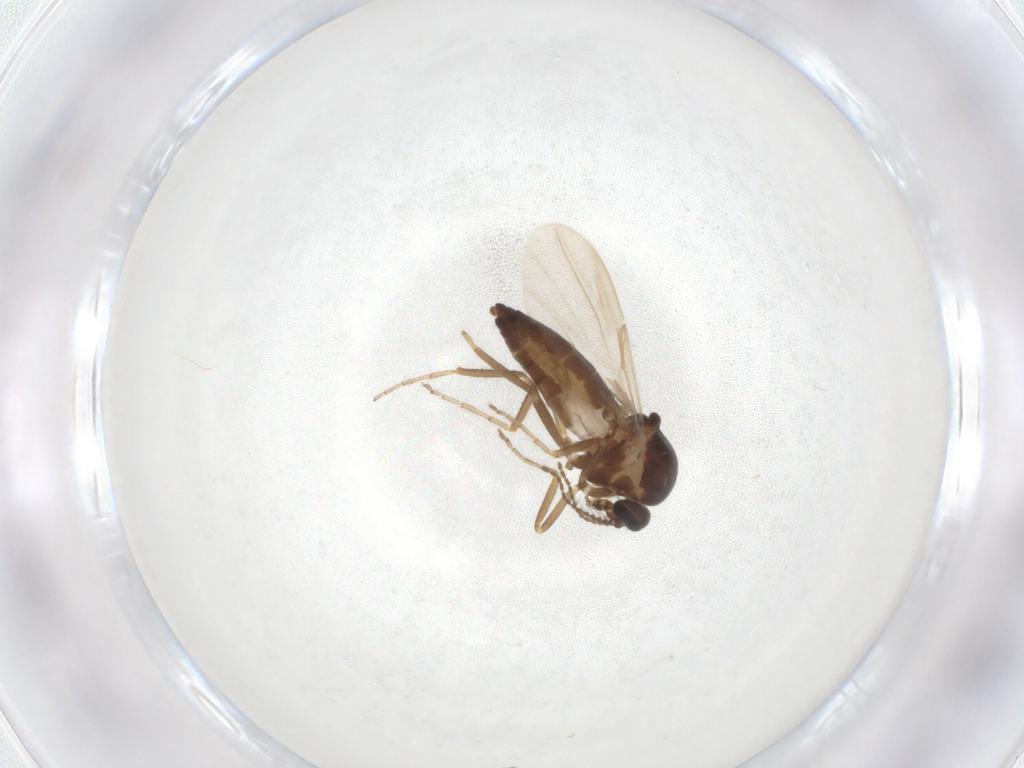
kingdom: Animalia
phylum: Arthropoda
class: Insecta
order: Diptera
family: Ceratopogonidae
